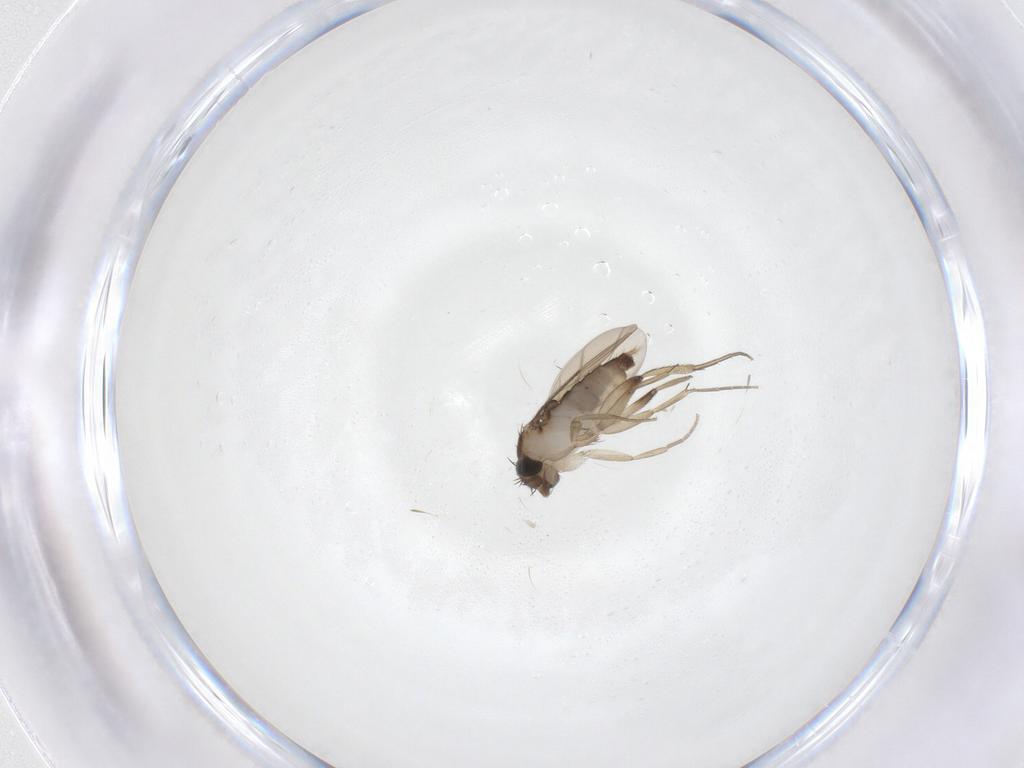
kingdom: Animalia
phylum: Arthropoda
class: Insecta
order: Diptera
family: Phoridae
